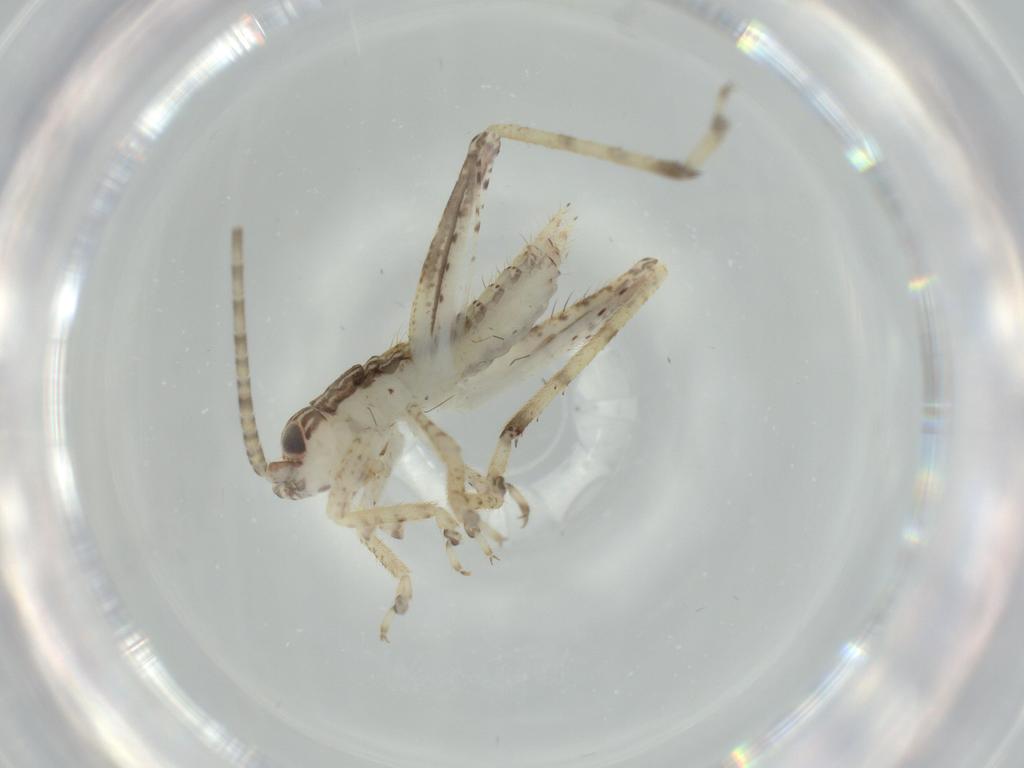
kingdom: Animalia
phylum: Arthropoda
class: Insecta
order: Orthoptera
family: Gryllidae
